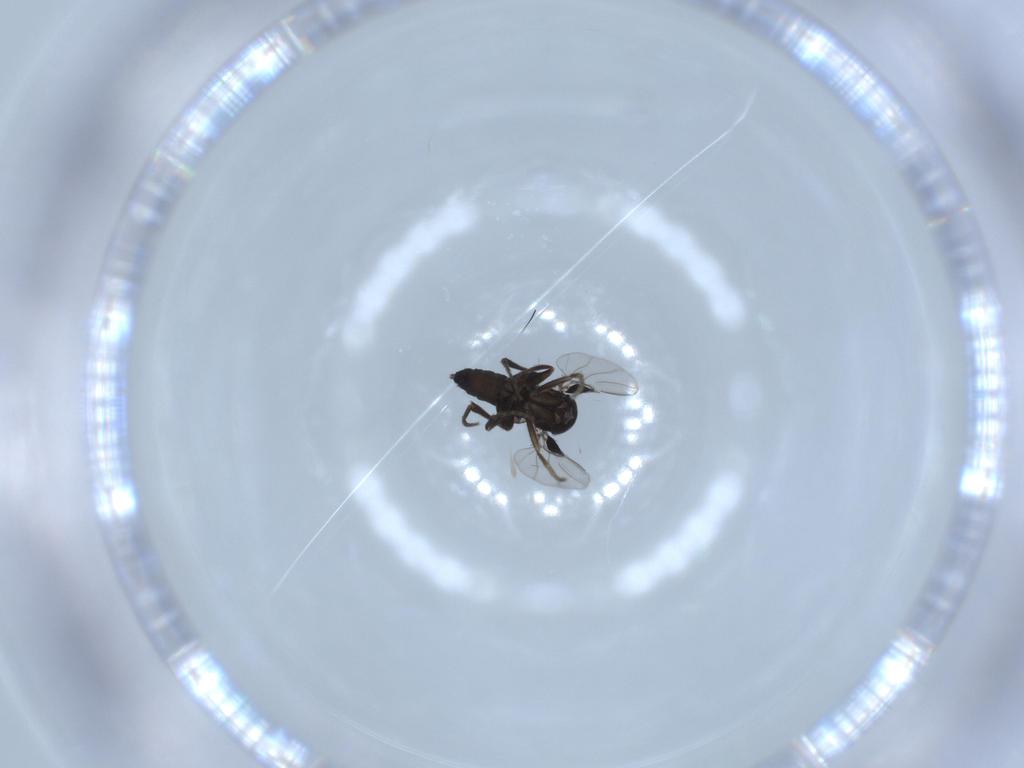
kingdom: Animalia
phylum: Arthropoda
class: Insecta
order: Diptera
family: Phoridae
